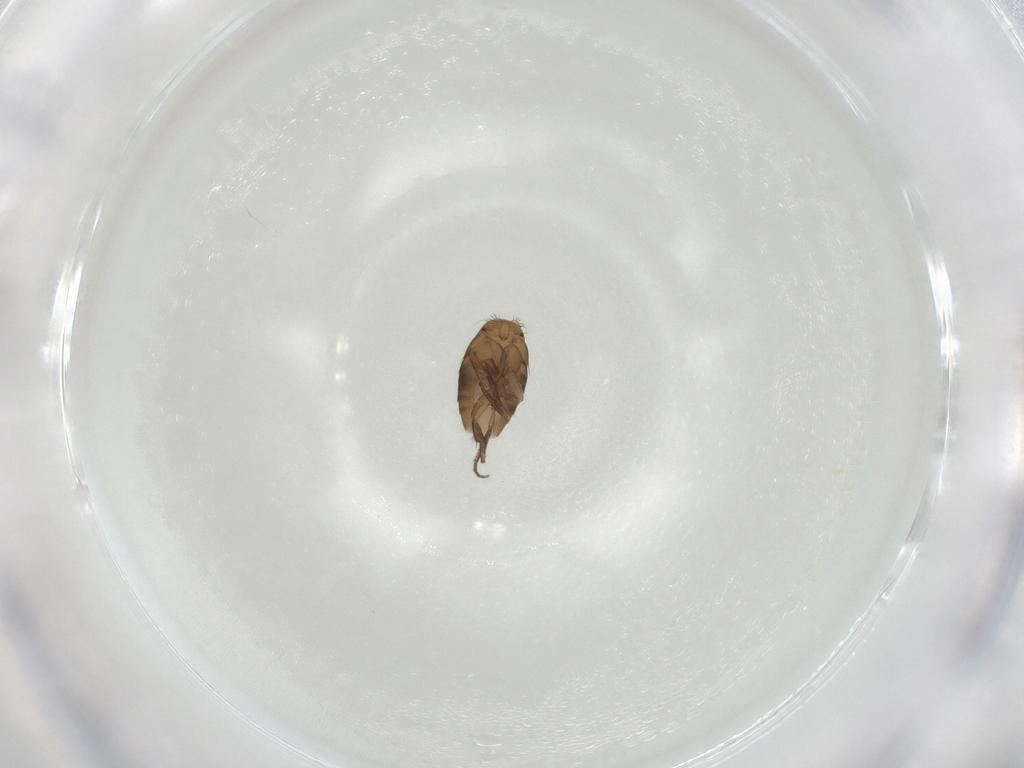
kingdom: Animalia
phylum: Arthropoda
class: Insecta
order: Diptera
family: Phoridae
